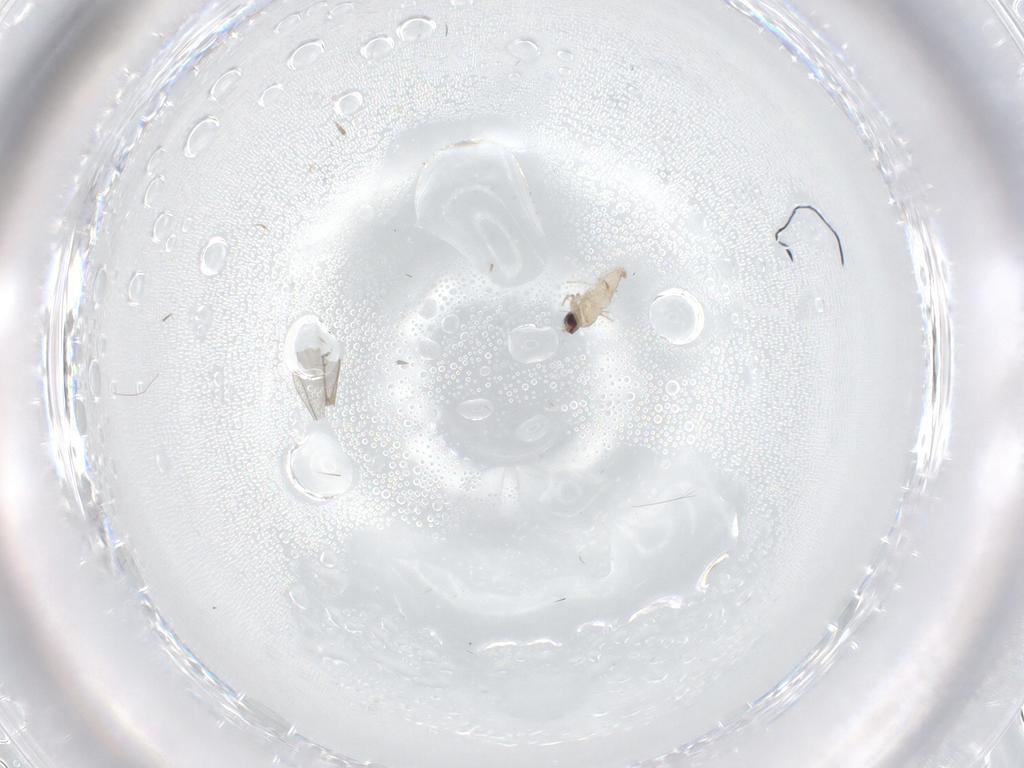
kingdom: Animalia
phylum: Arthropoda
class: Insecta
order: Diptera
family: Cecidomyiidae
